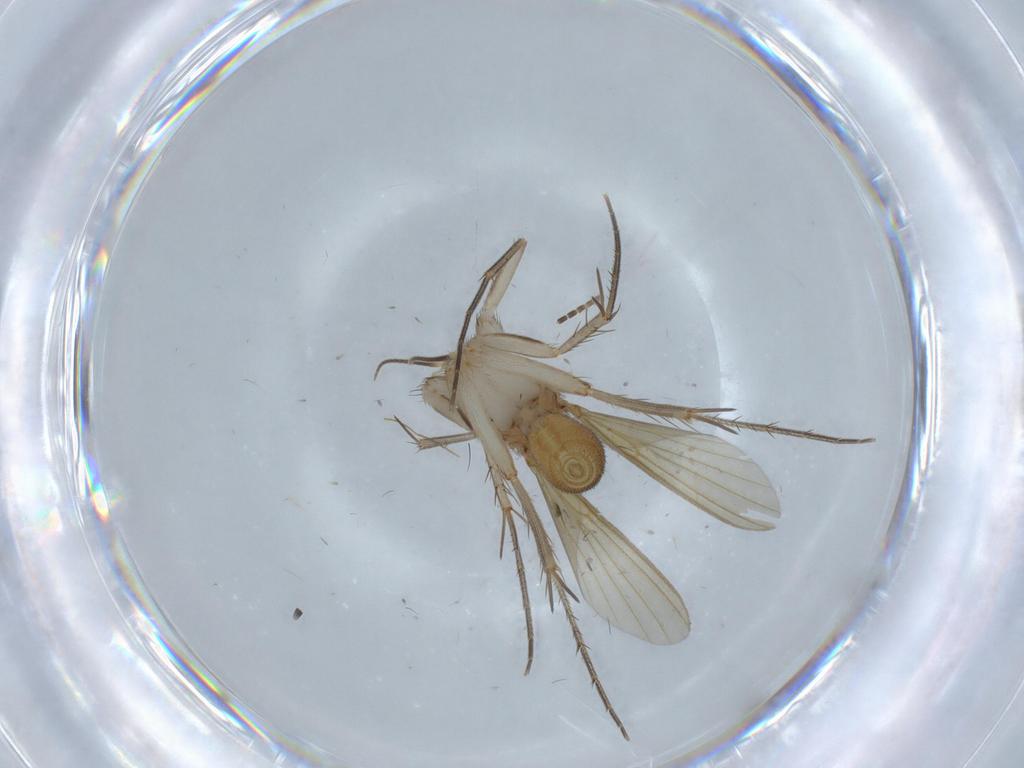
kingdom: Animalia
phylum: Arthropoda
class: Insecta
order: Diptera
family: Mycetophilidae
